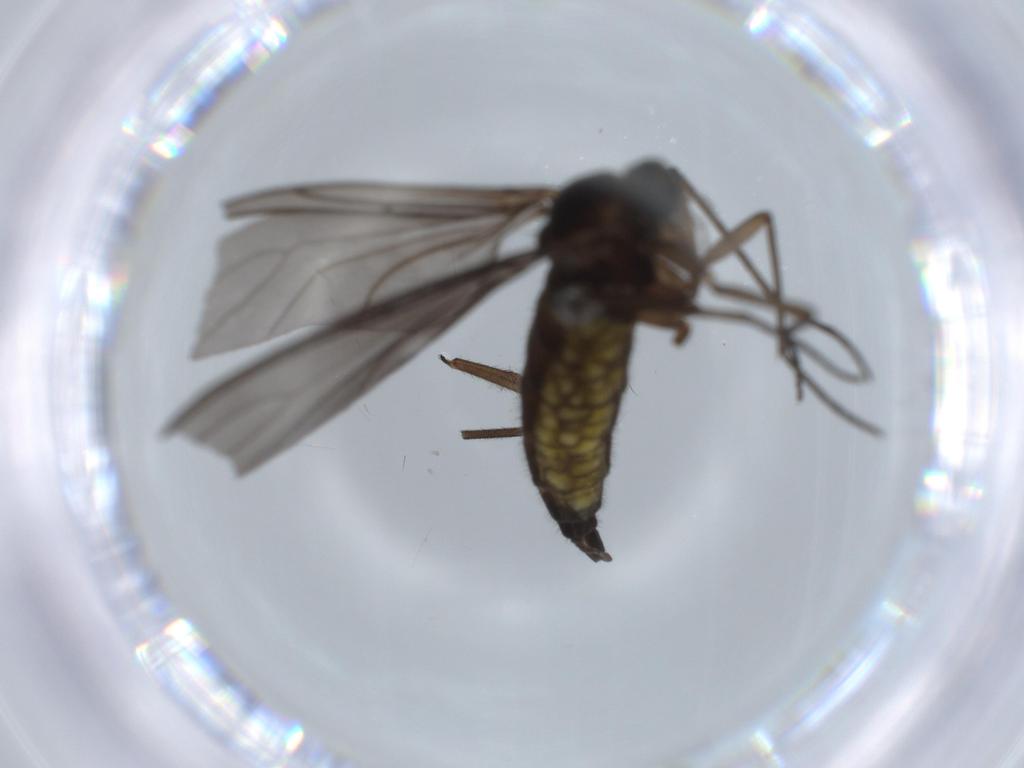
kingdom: Animalia
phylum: Arthropoda
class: Insecta
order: Diptera
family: Sciaridae
